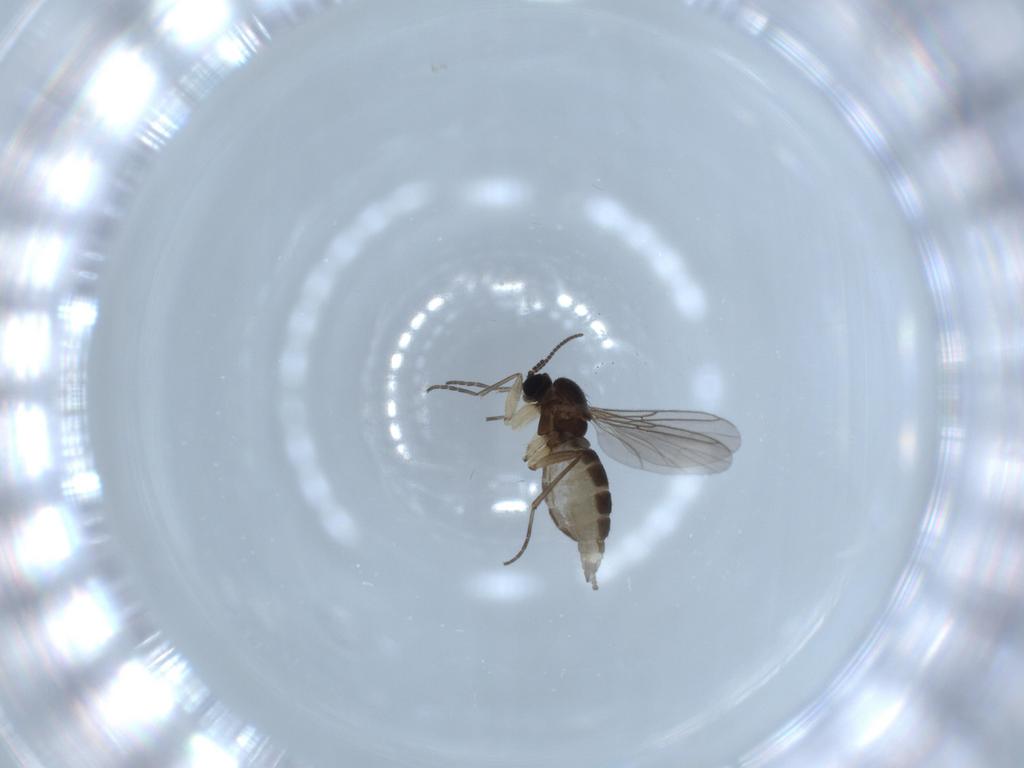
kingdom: Animalia
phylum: Arthropoda
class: Insecta
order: Diptera
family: Sciaridae
